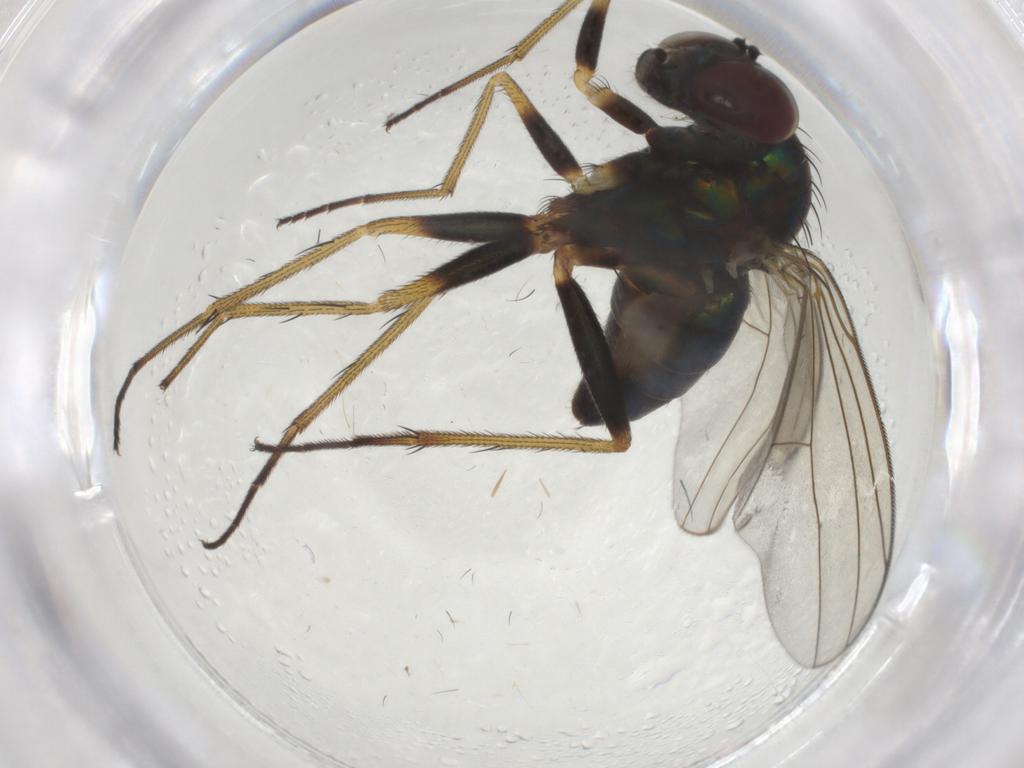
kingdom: Animalia
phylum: Arthropoda
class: Insecta
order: Diptera
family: Dolichopodidae
